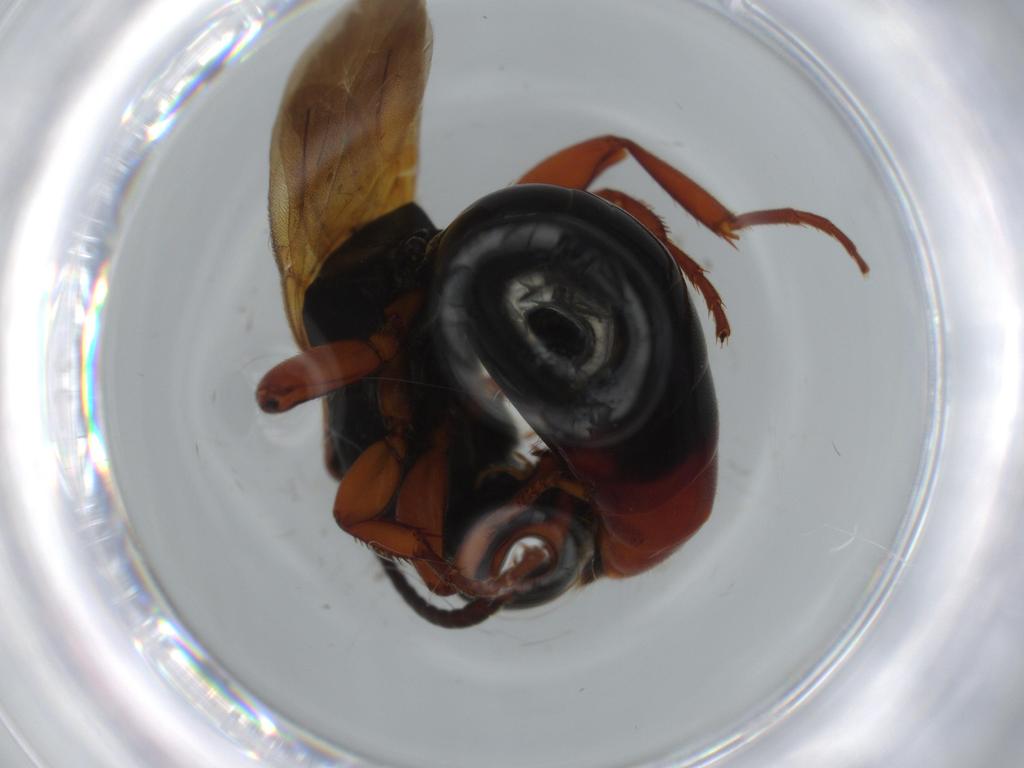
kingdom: Animalia
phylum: Arthropoda
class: Insecta
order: Hymenoptera
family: Bethylidae
